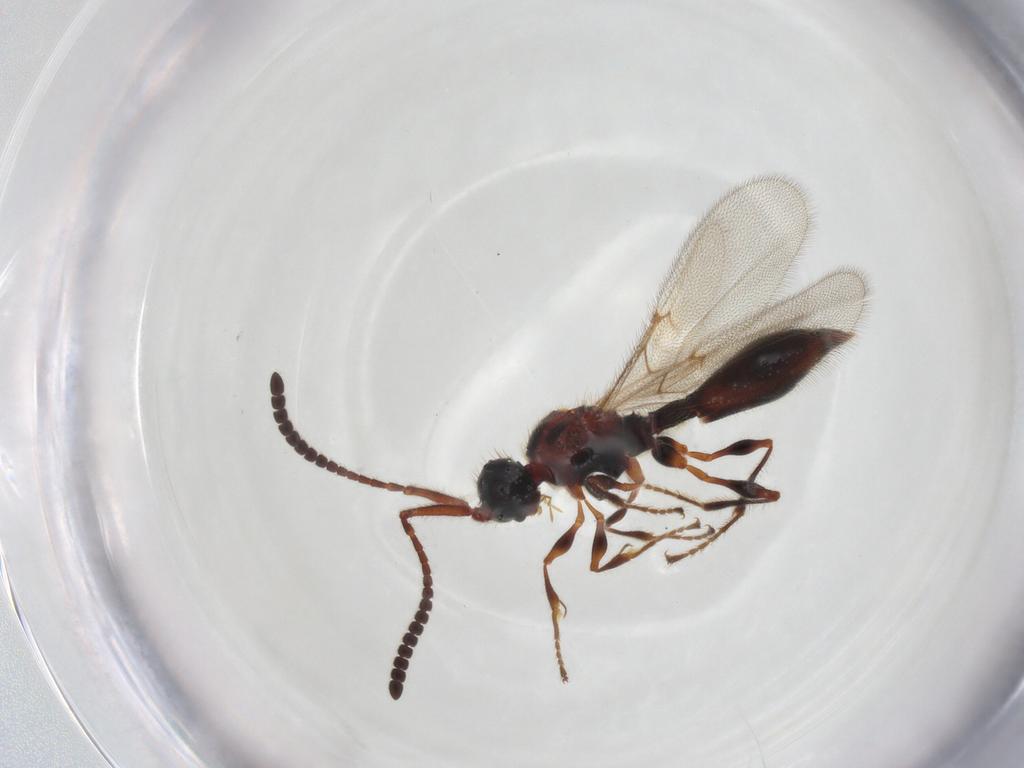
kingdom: Animalia
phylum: Arthropoda
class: Insecta
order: Hymenoptera
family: Diapriidae
